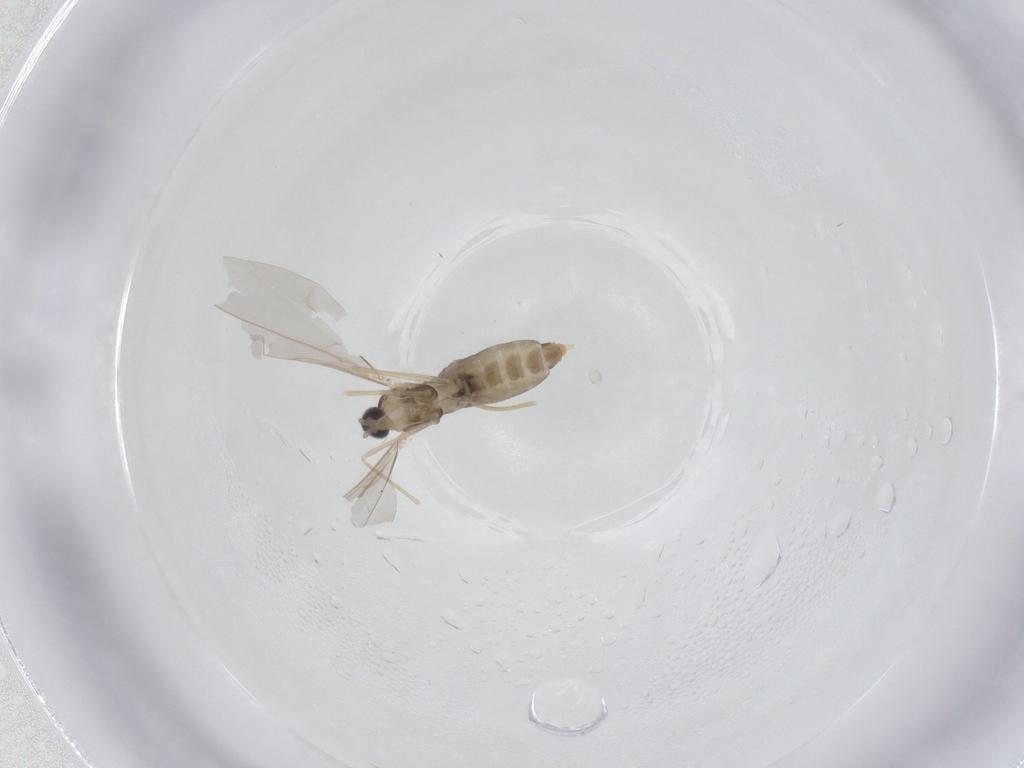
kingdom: Animalia
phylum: Arthropoda
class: Insecta
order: Diptera
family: Cecidomyiidae
